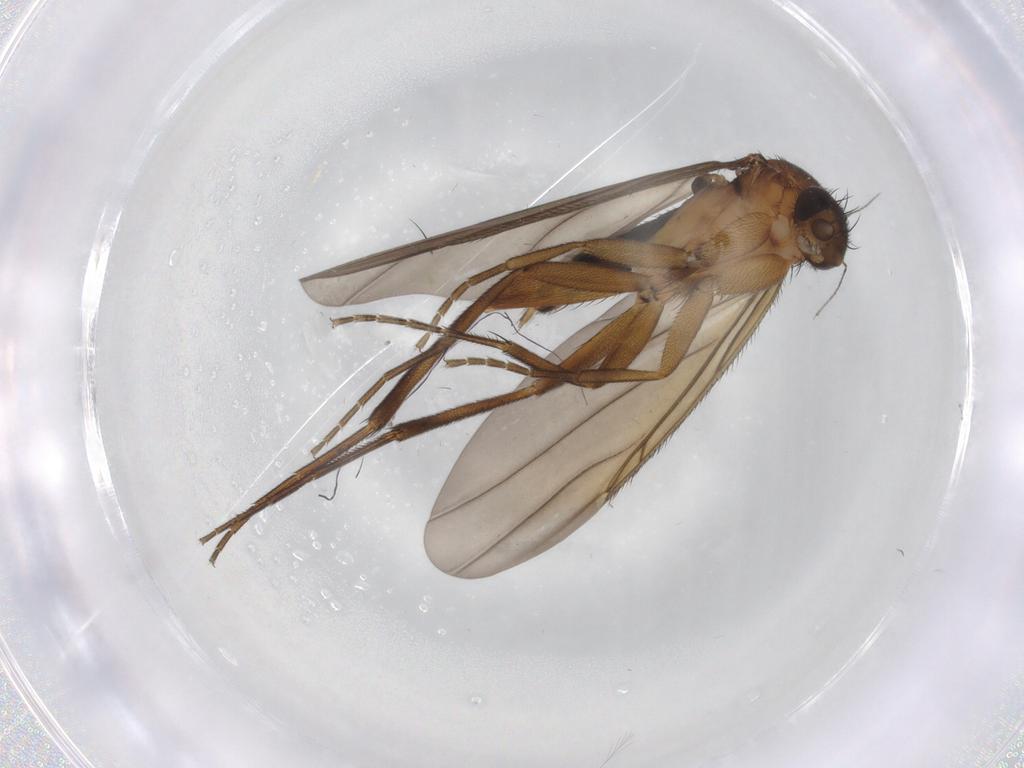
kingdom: Animalia
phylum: Arthropoda
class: Insecta
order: Diptera
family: Phoridae
